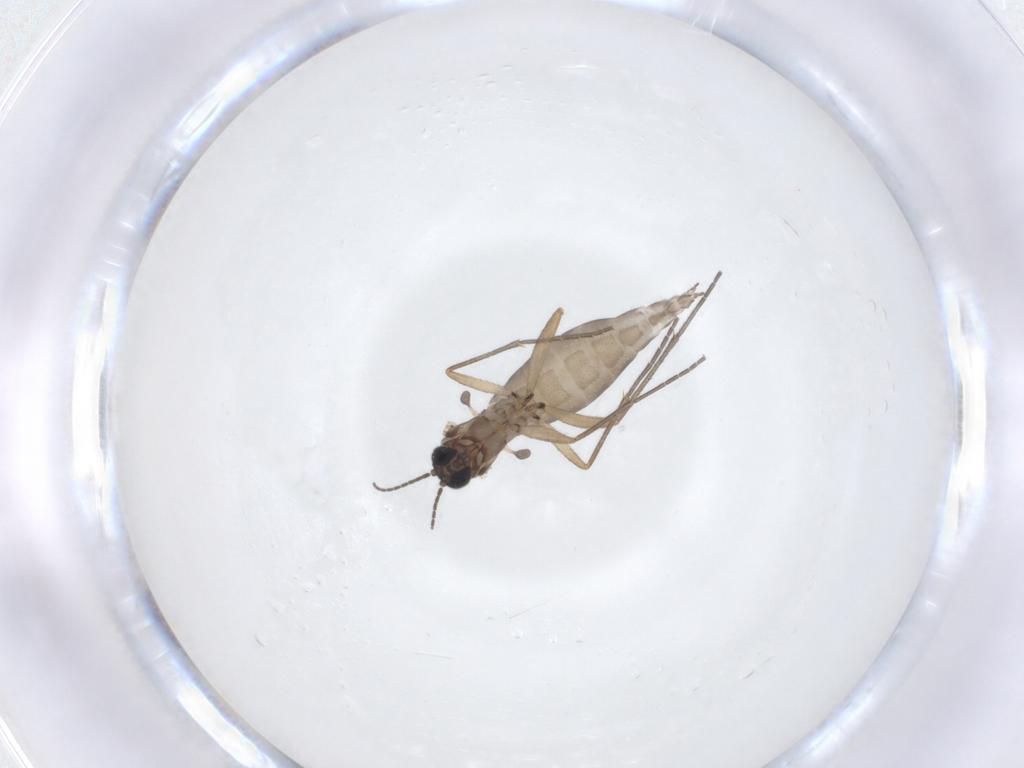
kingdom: Animalia
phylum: Arthropoda
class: Insecta
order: Diptera
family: Sciaridae
